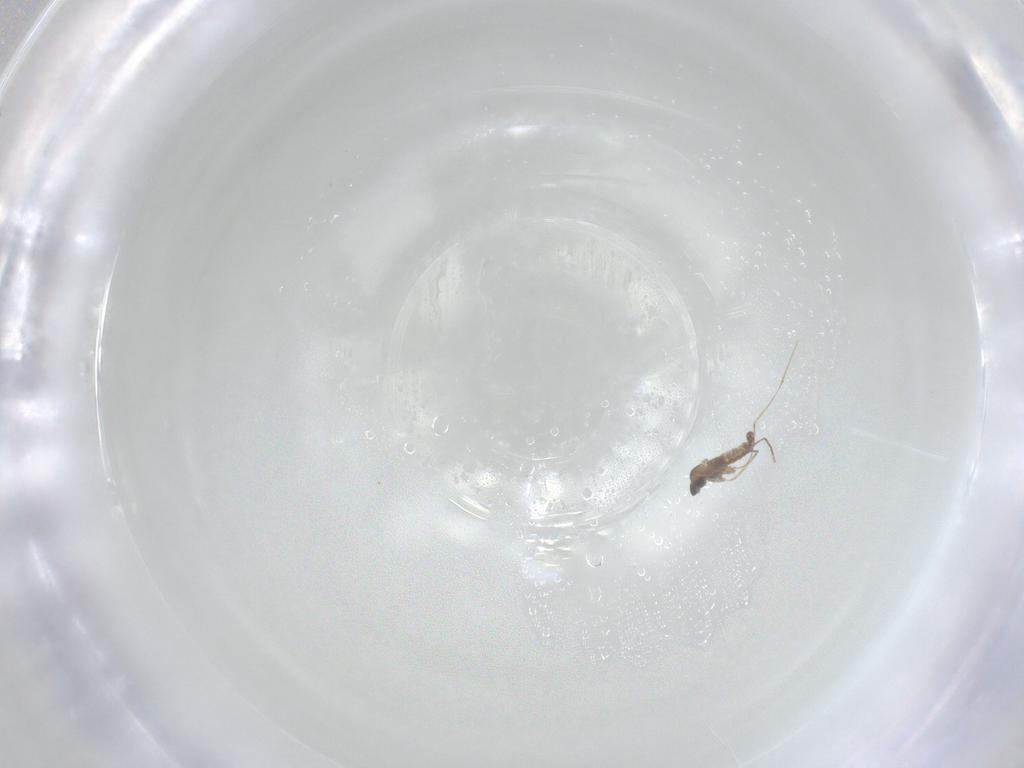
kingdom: Animalia
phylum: Arthropoda
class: Insecta
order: Diptera
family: Cecidomyiidae
